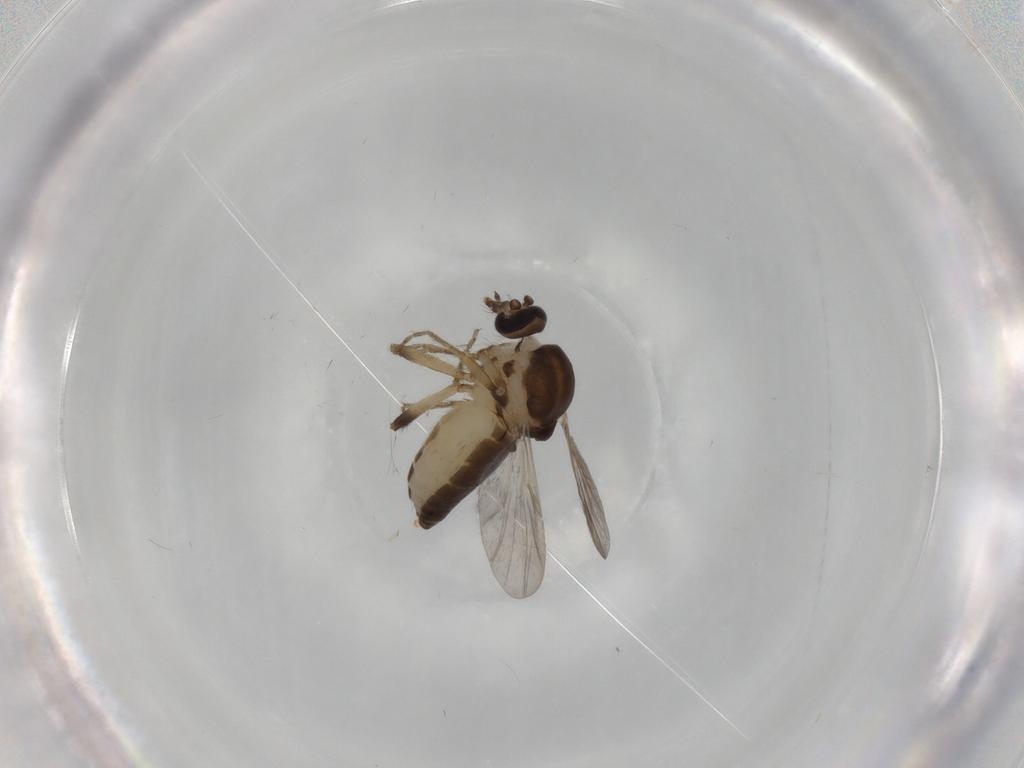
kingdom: Animalia
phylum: Arthropoda
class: Insecta
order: Diptera
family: Ceratopogonidae
